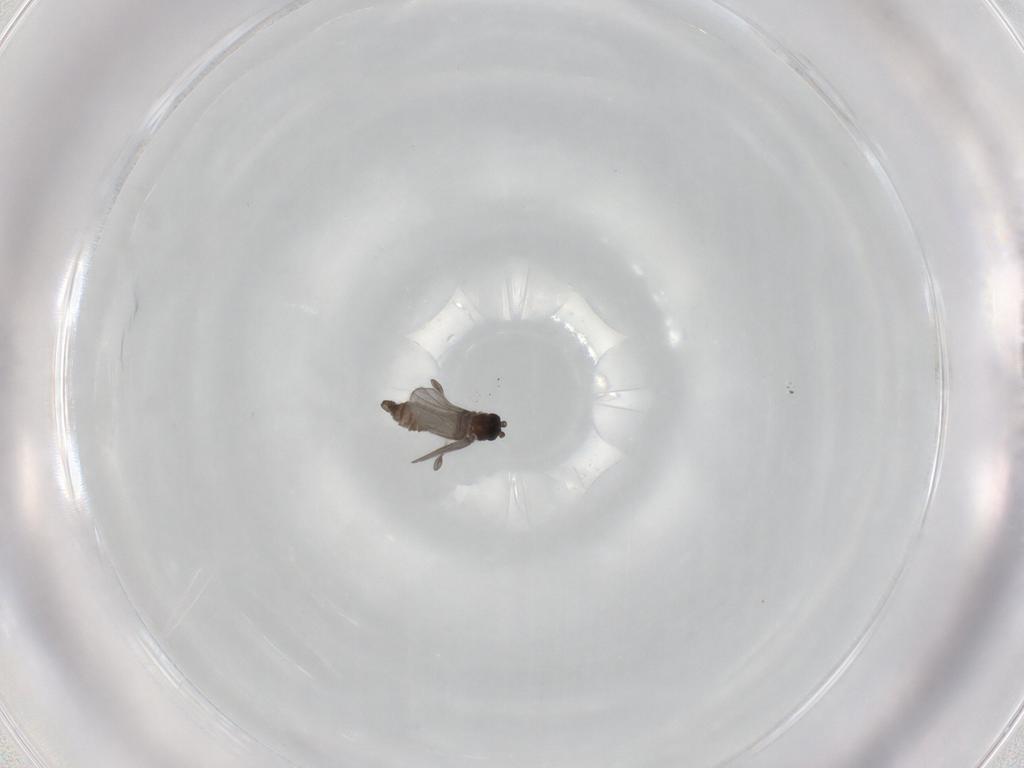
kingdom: Animalia
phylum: Arthropoda
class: Insecta
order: Diptera
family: Sciaridae
